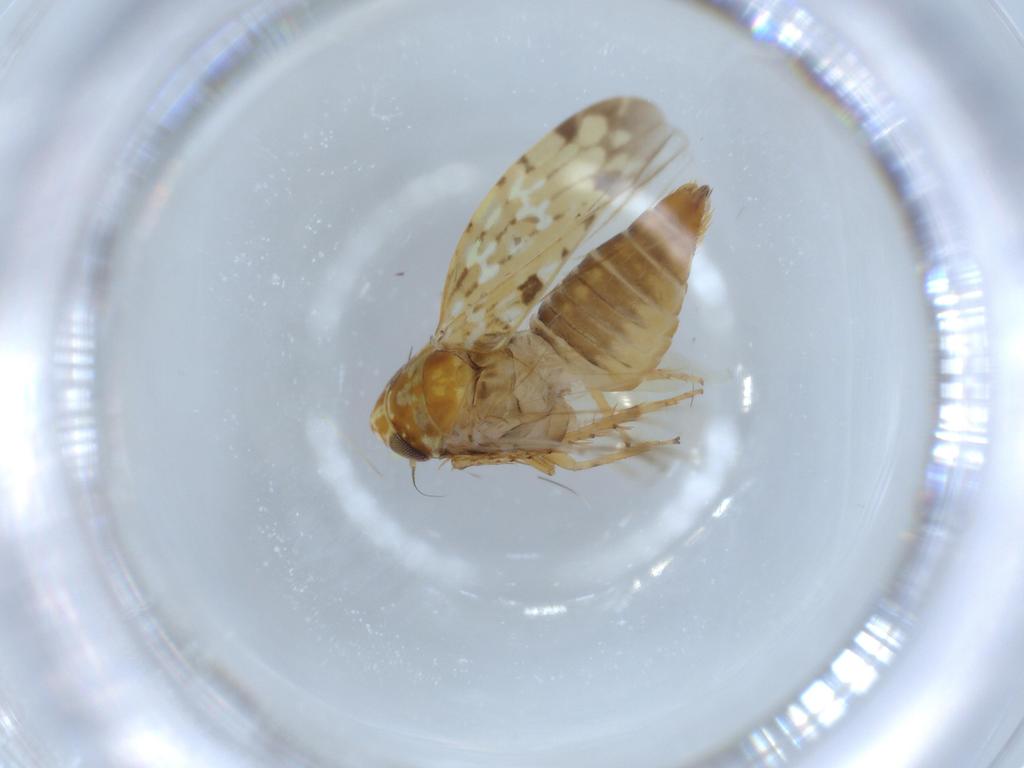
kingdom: Animalia
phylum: Arthropoda
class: Insecta
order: Hemiptera
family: Cicadellidae
